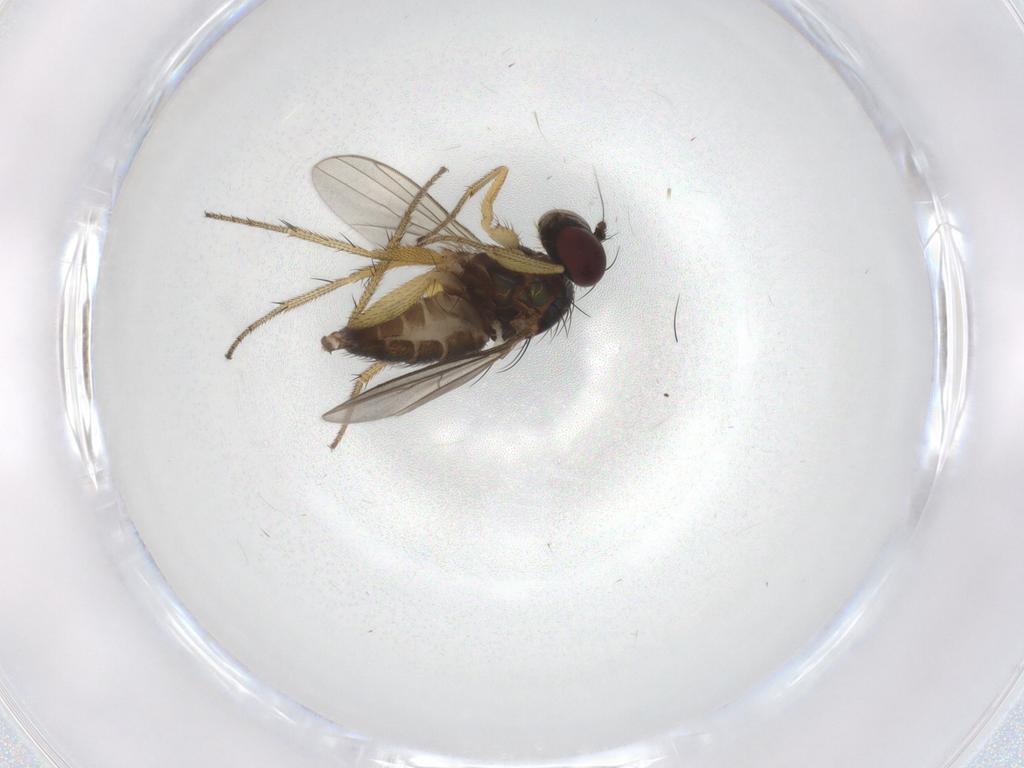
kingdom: Animalia
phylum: Arthropoda
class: Insecta
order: Diptera
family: Dolichopodidae
